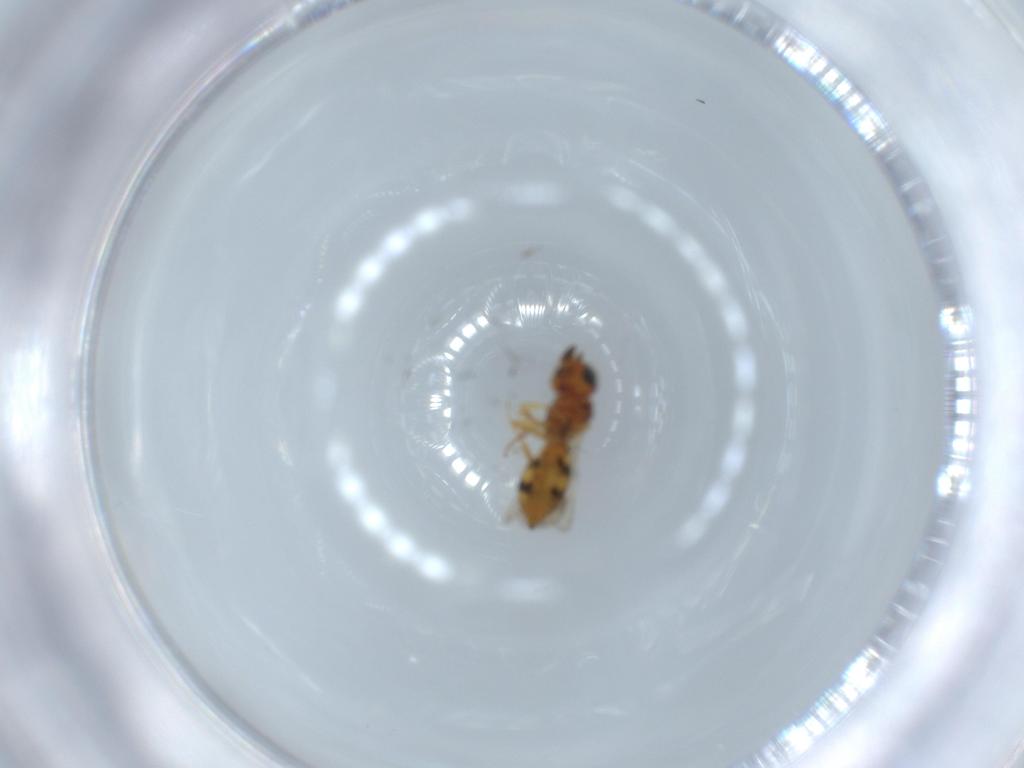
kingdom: Animalia
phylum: Arthropoda
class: Insecta
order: Hymenoptera
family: Scelionidae
